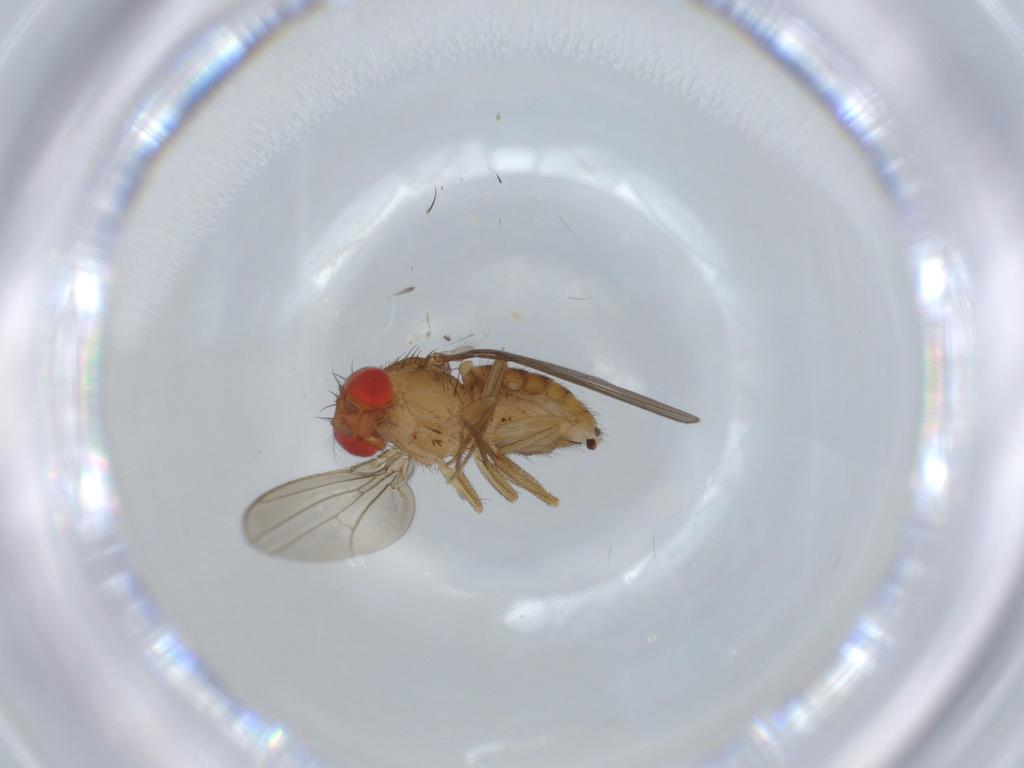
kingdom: Animalia
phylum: Arthropoda
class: Insecta
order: Diptera
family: Drosophilidae
